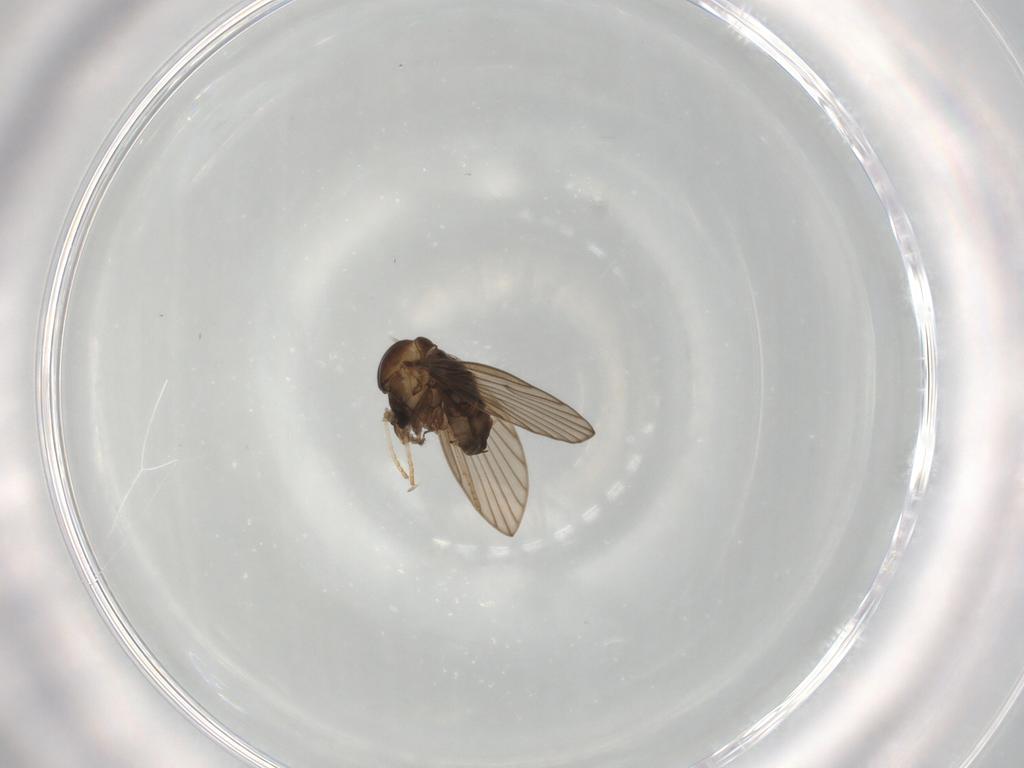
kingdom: Animalia
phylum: Arthropoda
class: Insecta
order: Diptera
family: Psychodidae
